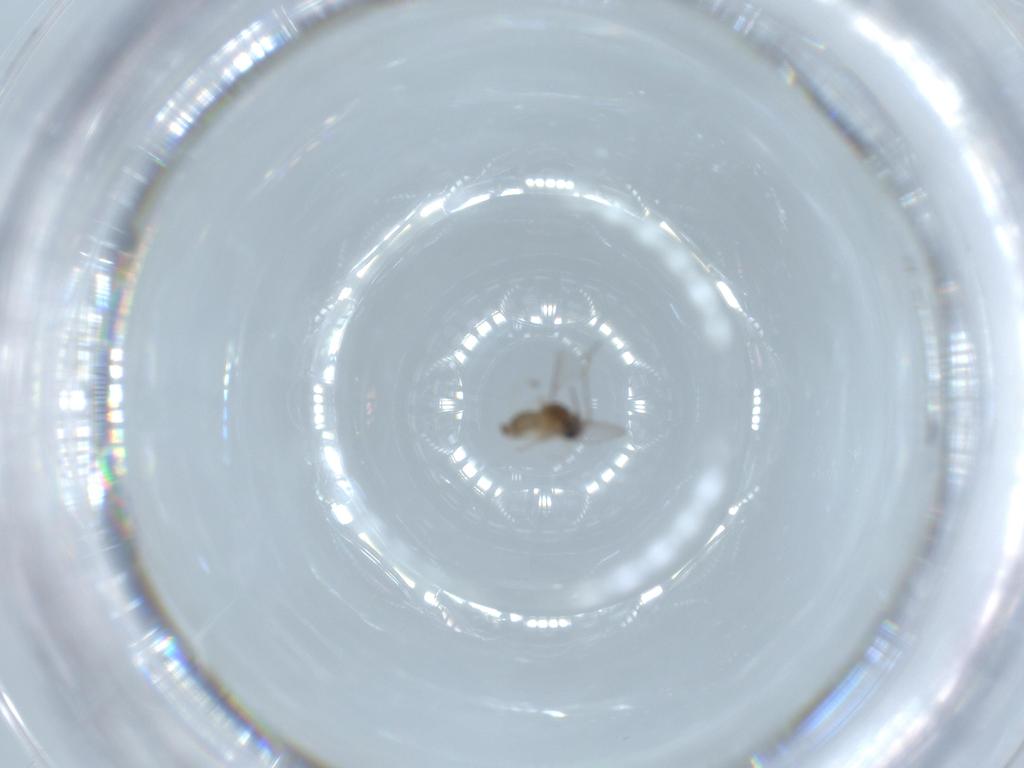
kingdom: Animalia
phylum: Arthropoda
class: Insecta
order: Diptera
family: Cecidomyiidae
